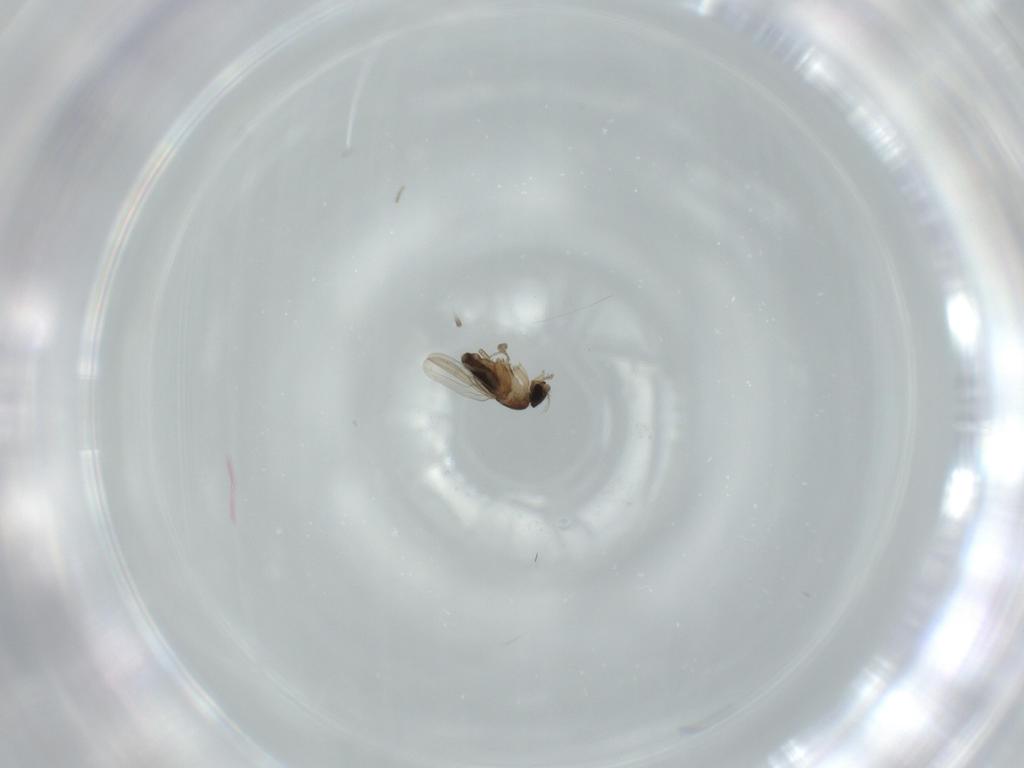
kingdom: Animalia
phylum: Arthropoda
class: Insecta
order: Diptera
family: Phoridae
